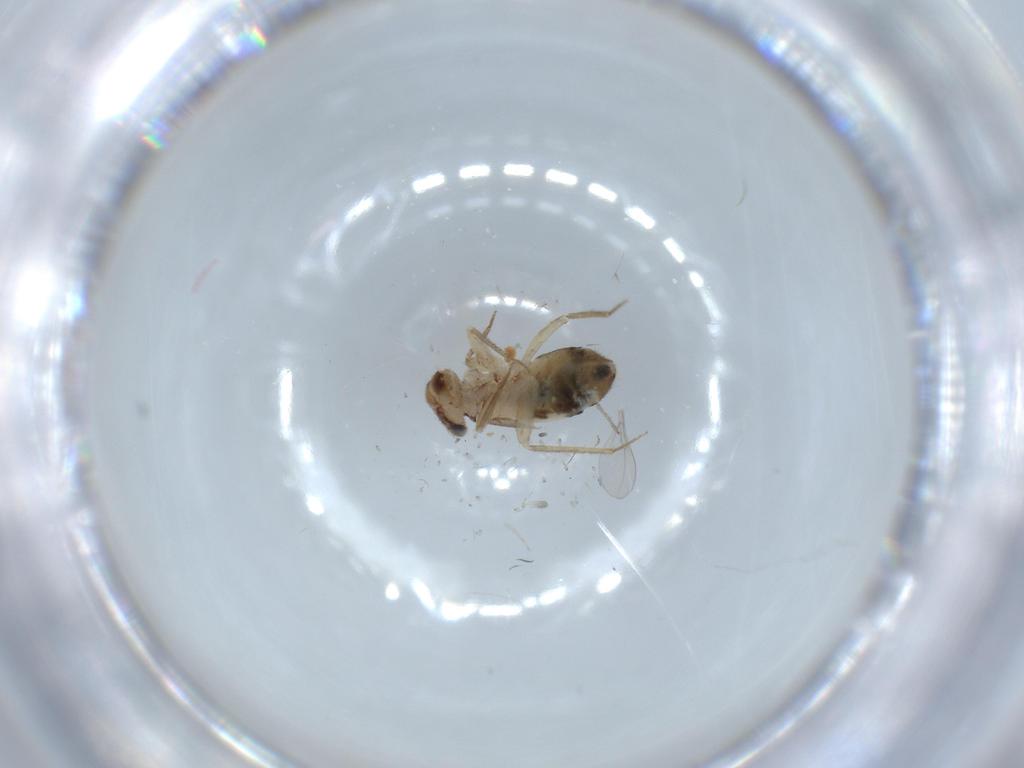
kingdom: Animalia
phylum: Arthropoda
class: Insecta
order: Psocodea
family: Lepidopsocidae
